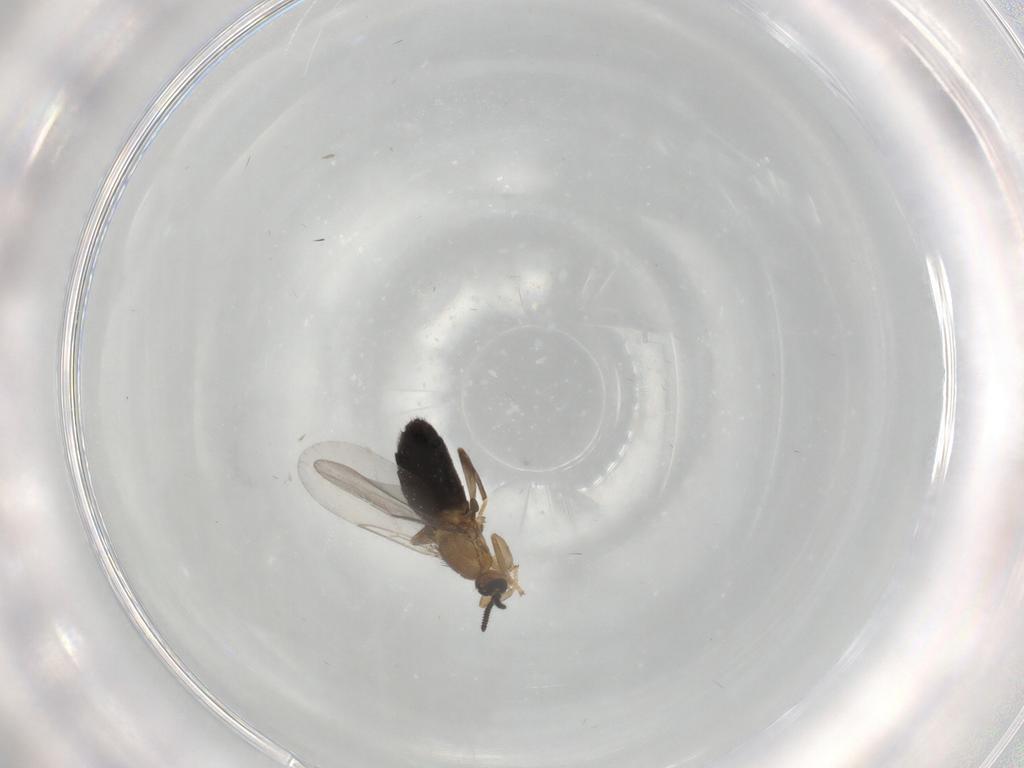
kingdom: Animalia
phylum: Arthropoda
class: Insecta
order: Diptera
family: Scatopsidae
